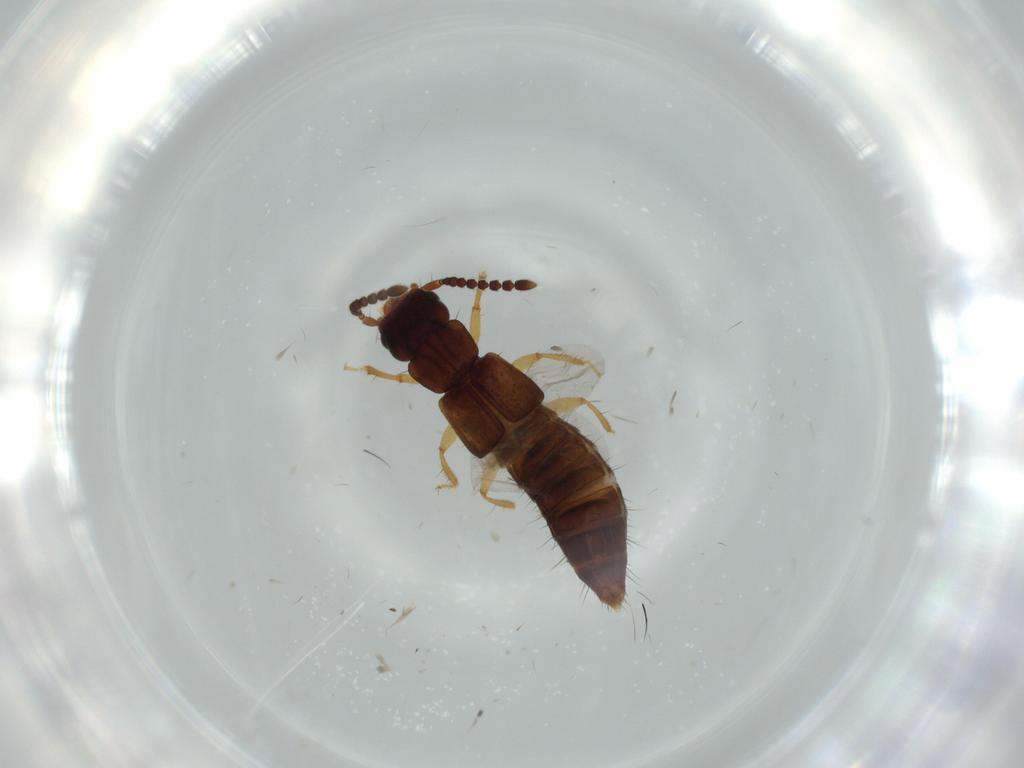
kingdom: Animalia
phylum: Arthropoda
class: Insecta
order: Coleoptera
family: Staphylinidae
